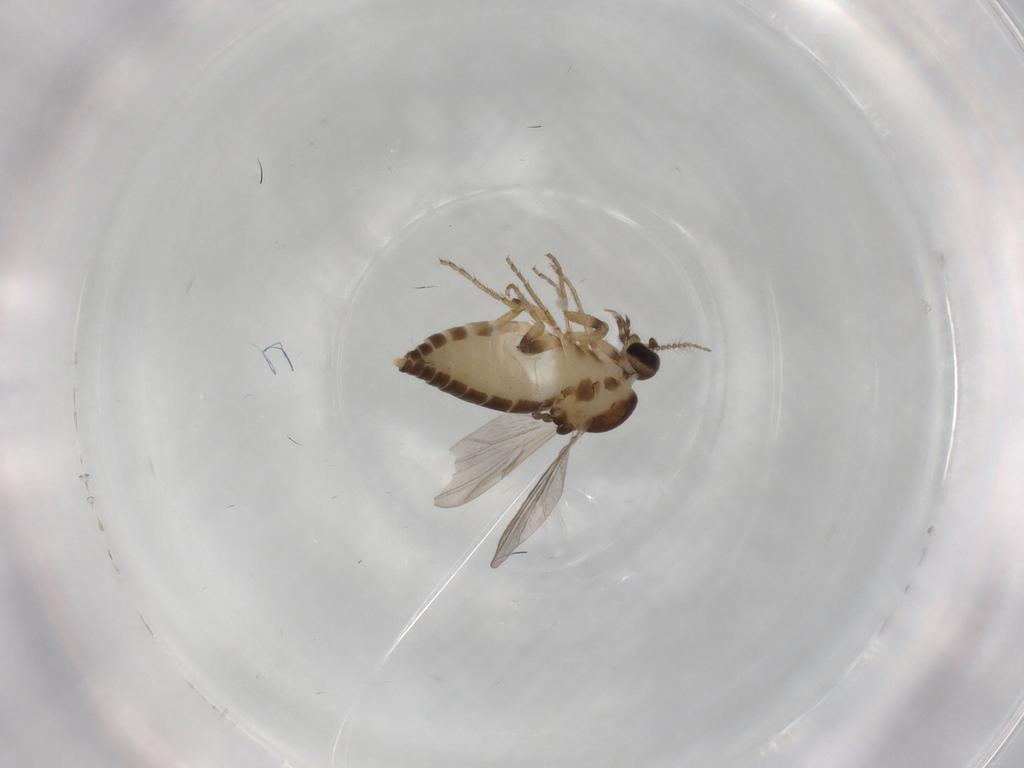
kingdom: Animalia
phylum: Arthropoda
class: Insecta
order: Diptera
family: Ceratopogonidae
